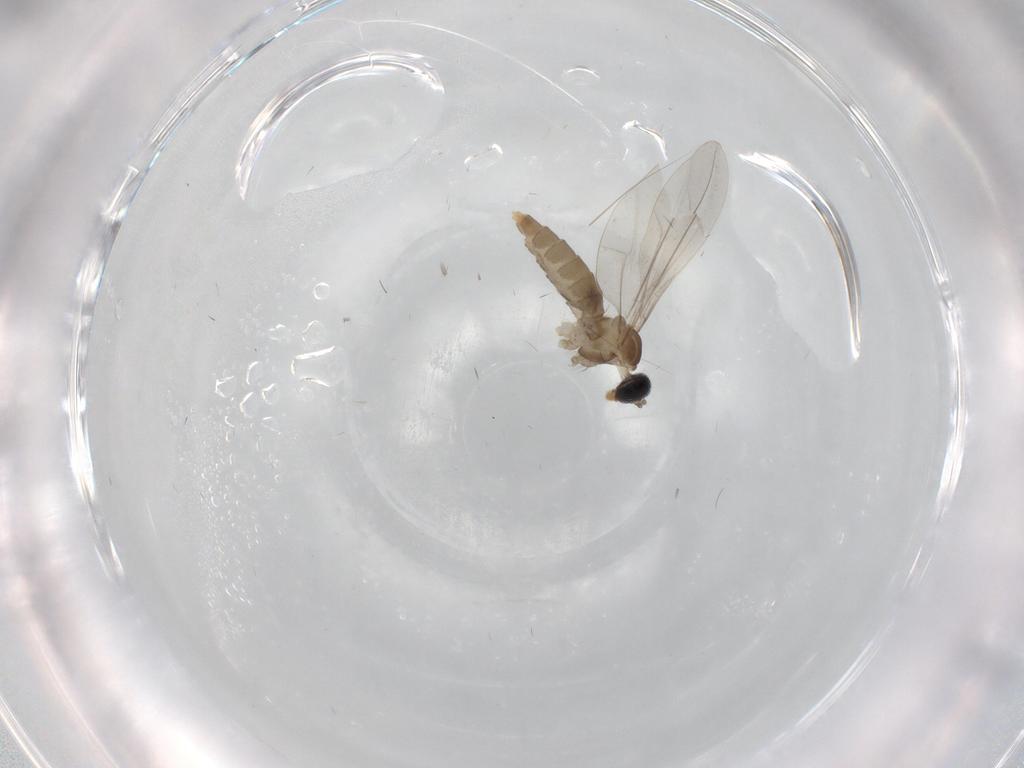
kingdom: Animalia
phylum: Arthropoda
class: Insecta
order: Diptera
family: Cecidomyiidae
